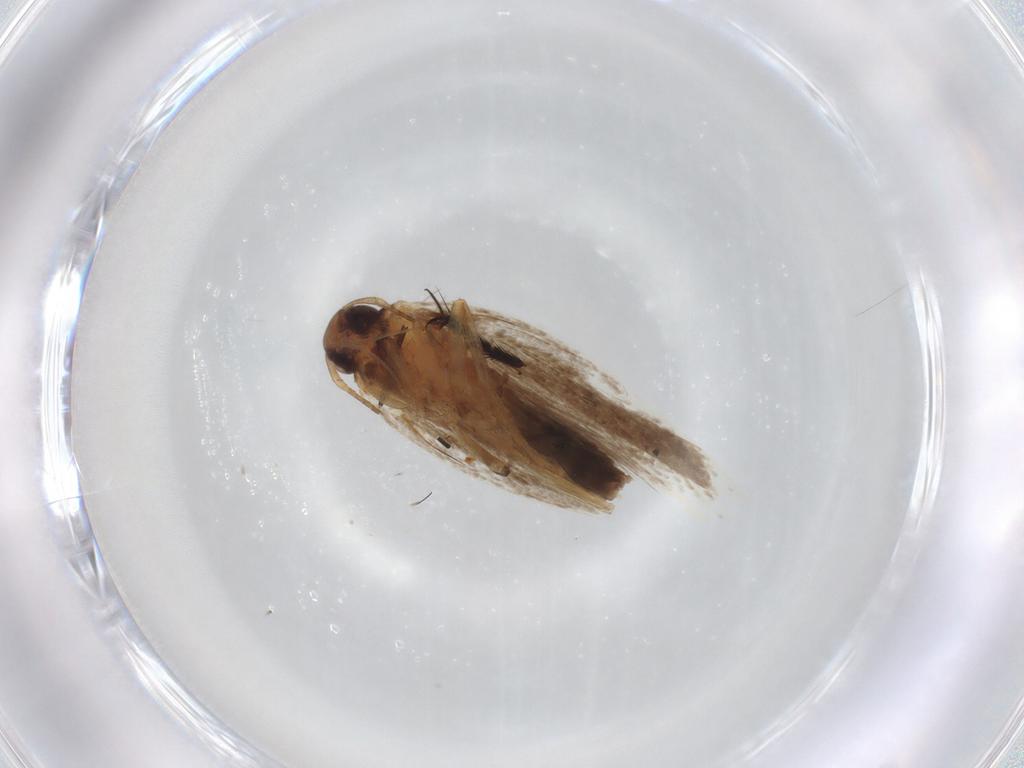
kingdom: Animalia
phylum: Arthropoda
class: Insecta
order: Lepidoptera
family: Gelechiidae
